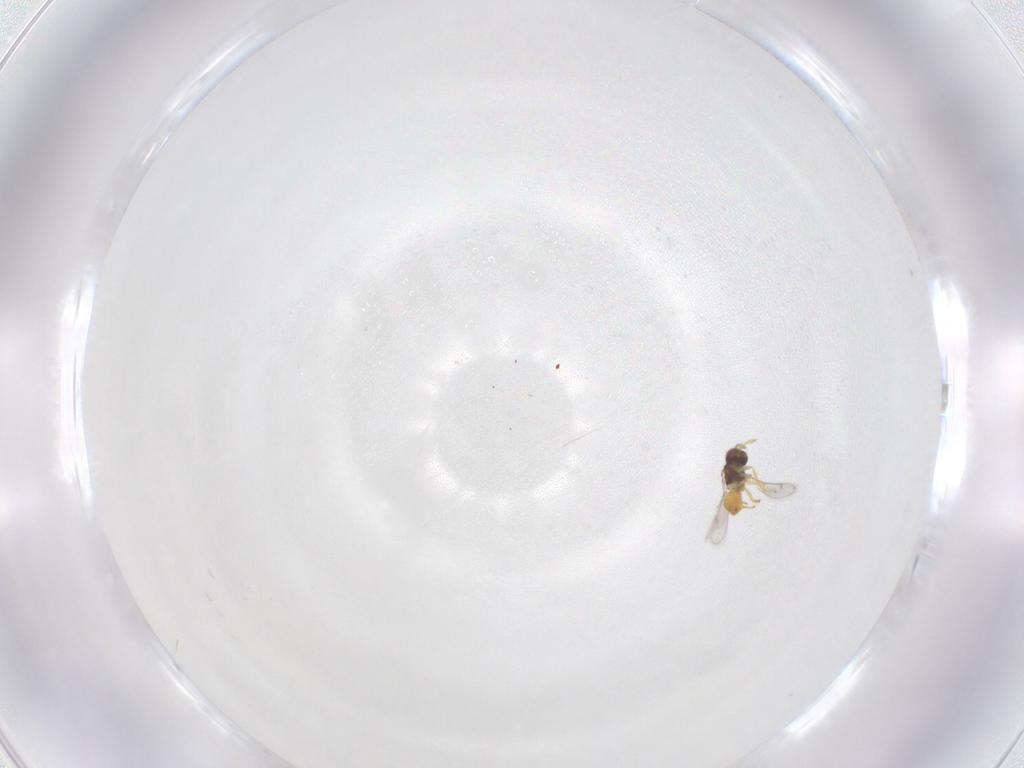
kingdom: Animalia
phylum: Arthropoda
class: Insecta
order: Hymenoptera
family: Eulophidae
